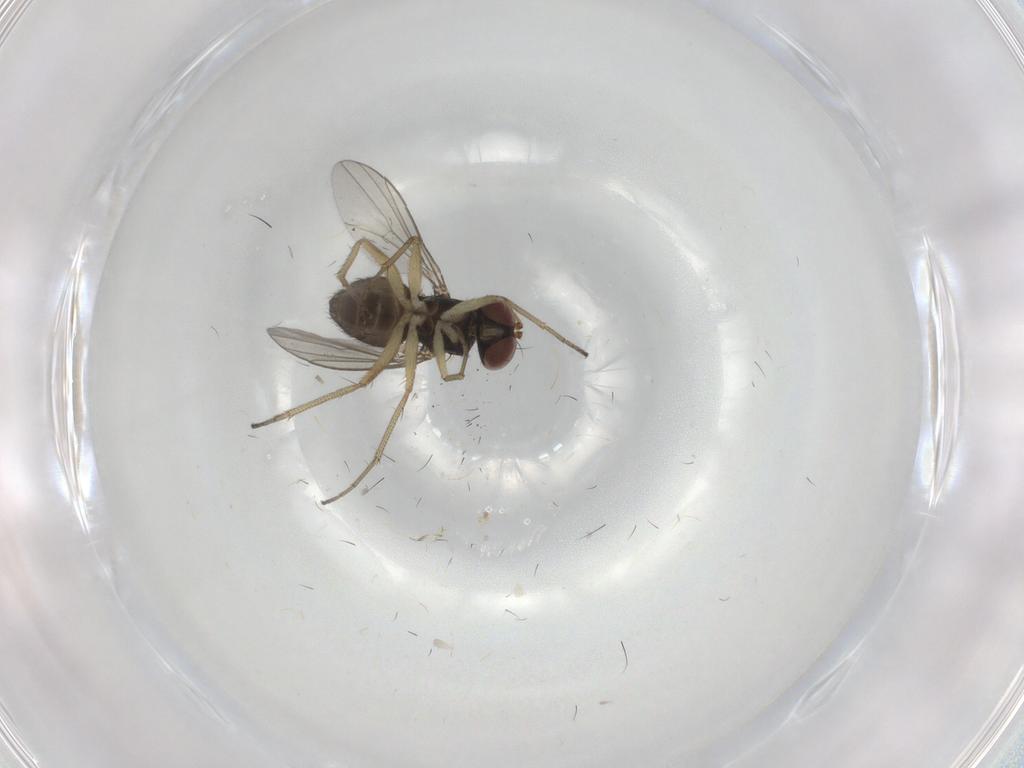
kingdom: Animalia
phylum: Arthropoda
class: Insecta
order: Diptera
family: Dolichopodidae
